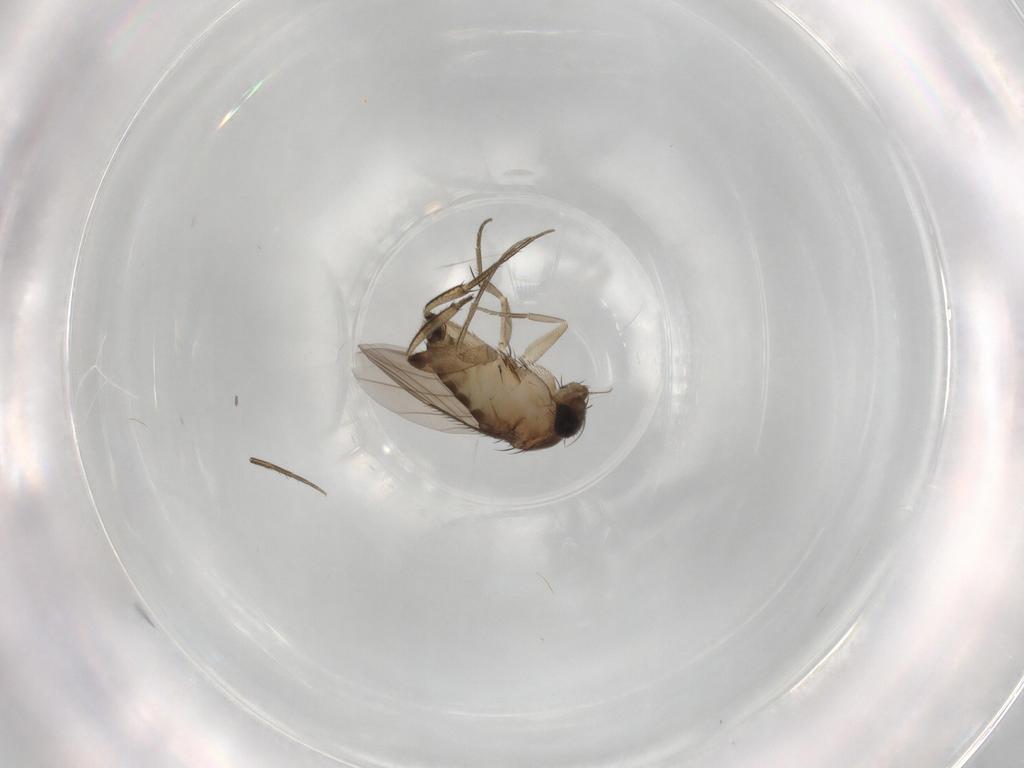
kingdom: Animalia
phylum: Arthropoda
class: Insecta
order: Diptera
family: Phoridae
